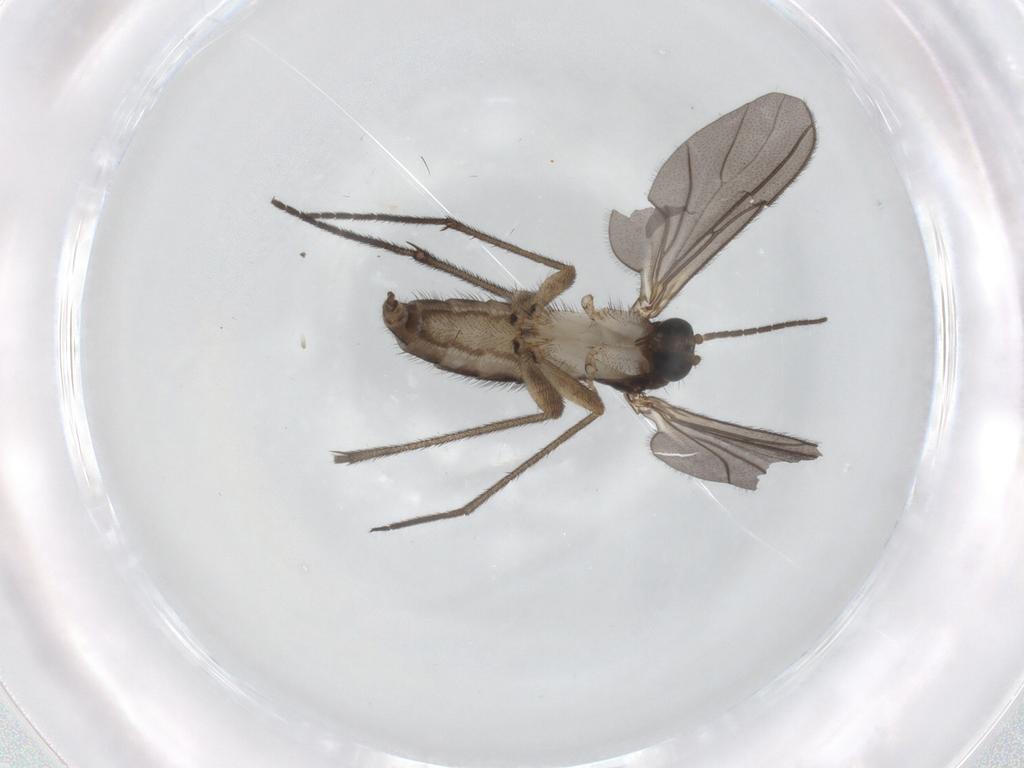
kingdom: Animalia
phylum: Arthropoda
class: Insecta
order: Diptera
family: Sciaridae
